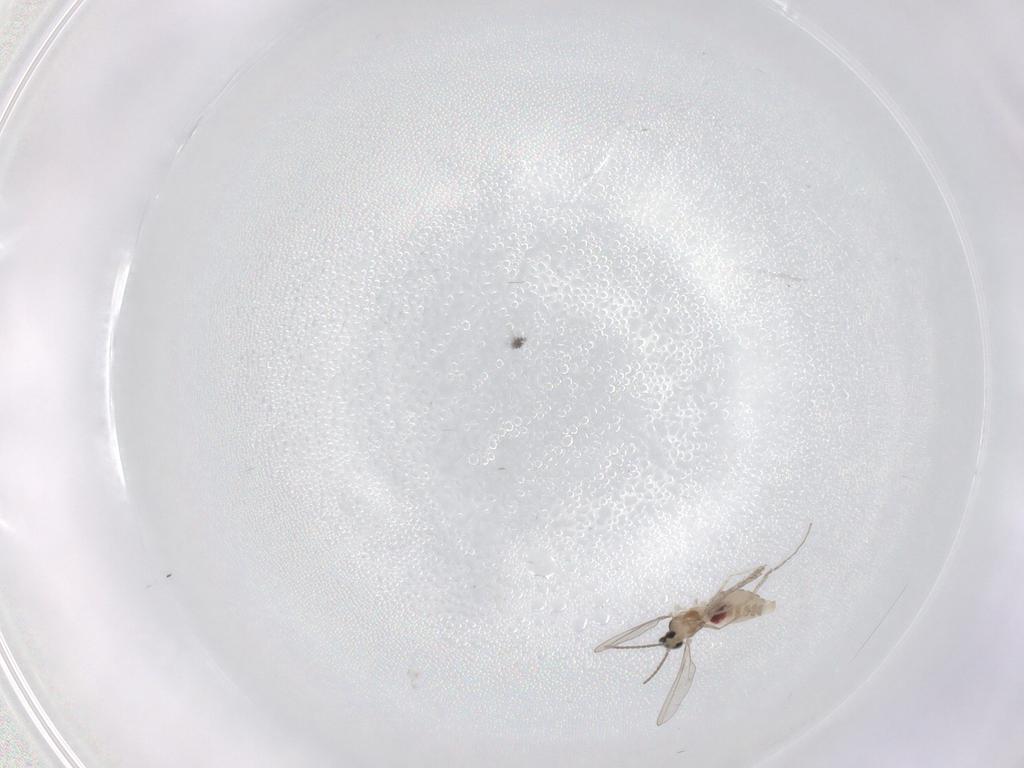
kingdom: Animalia
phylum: Arthropoda
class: Insecta
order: Diptera
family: Cecidomyiidae
